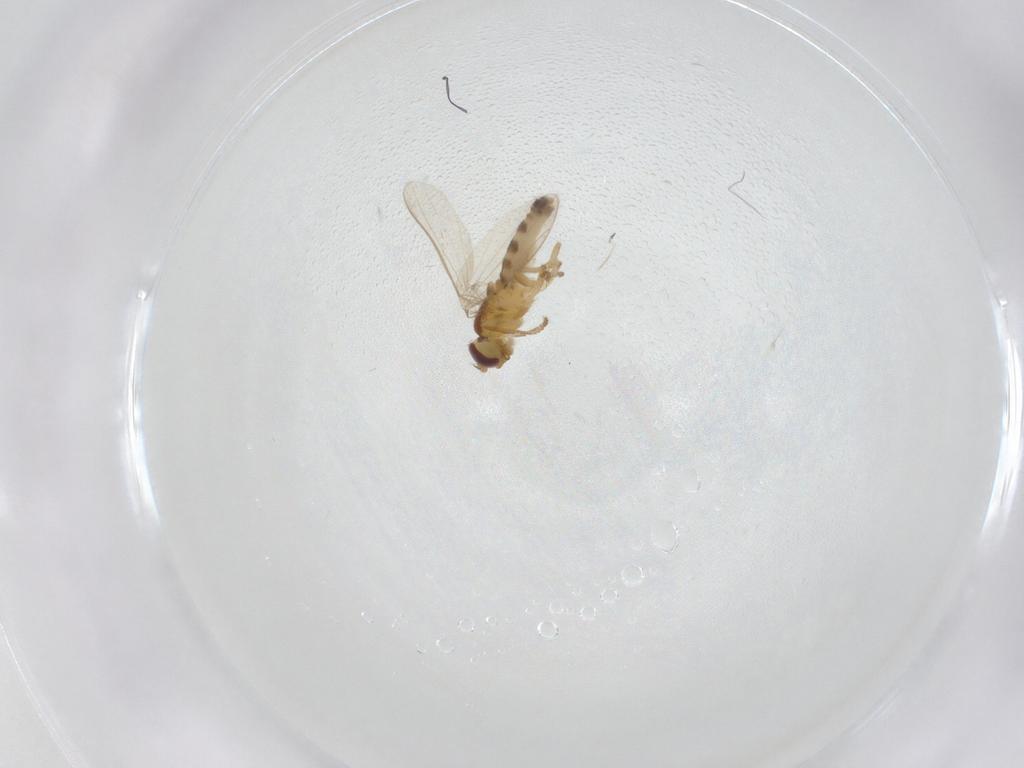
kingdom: Animalia
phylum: Arthropoda
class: Insecta
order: Diptera
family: Periscelididae
